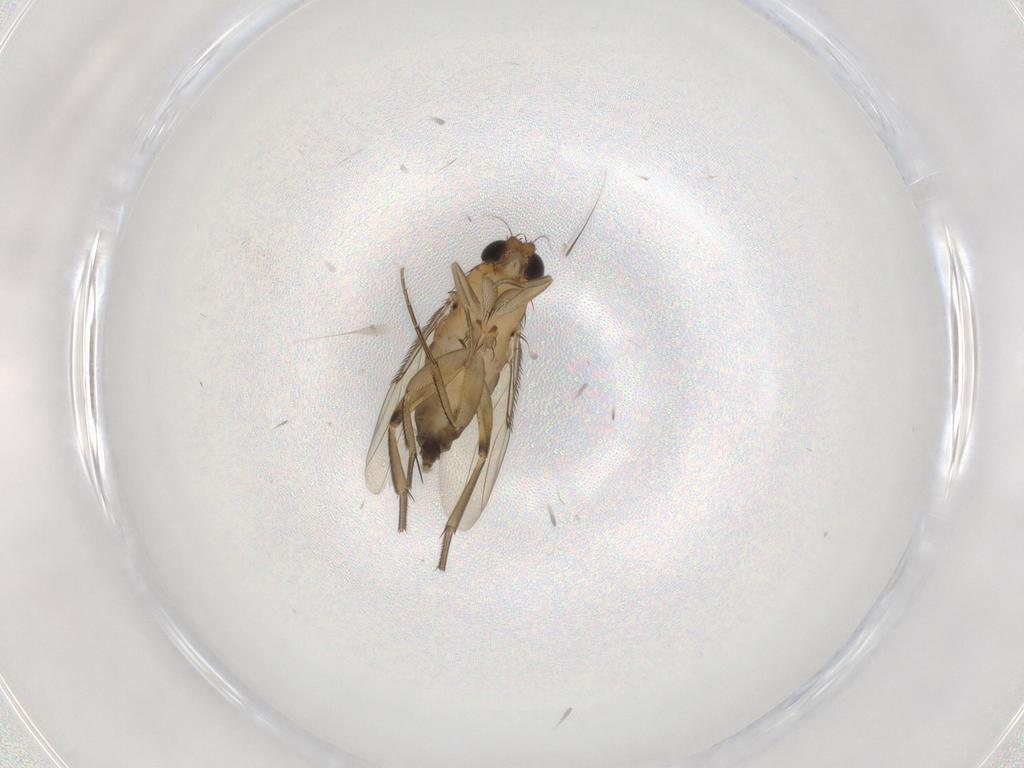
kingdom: Animalia
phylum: Arthropoda
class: Insecta
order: Diptera
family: Phoridae
